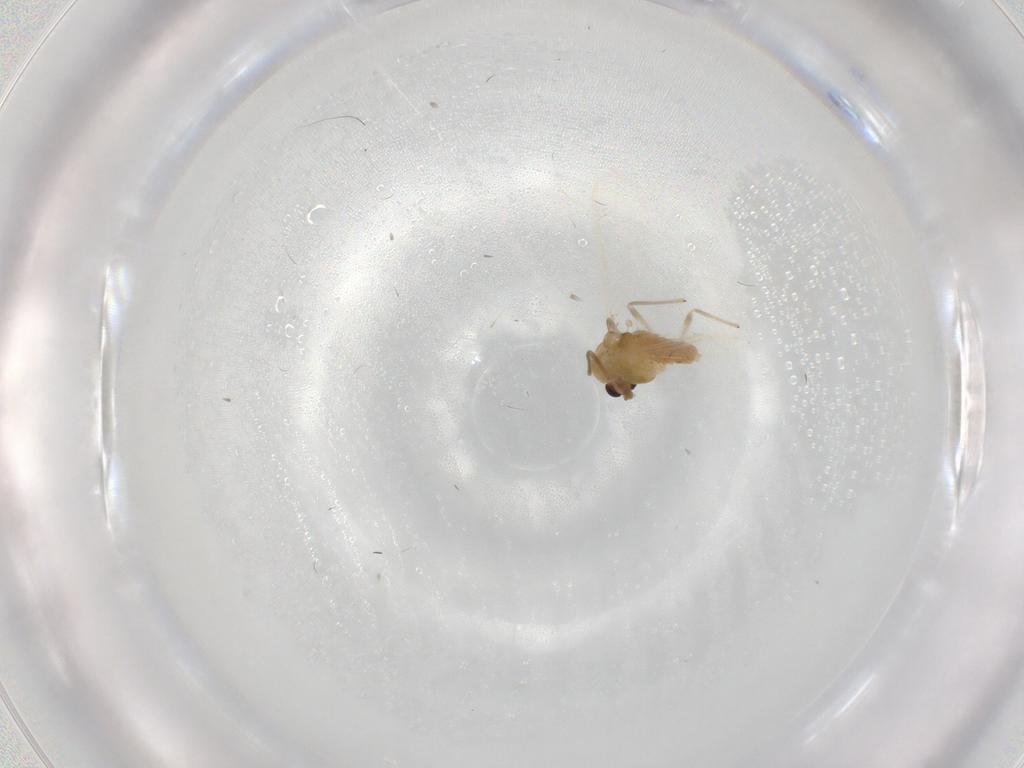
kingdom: Animalia
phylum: Arthropoda
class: Insecta
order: Diptera
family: Chironomidae
